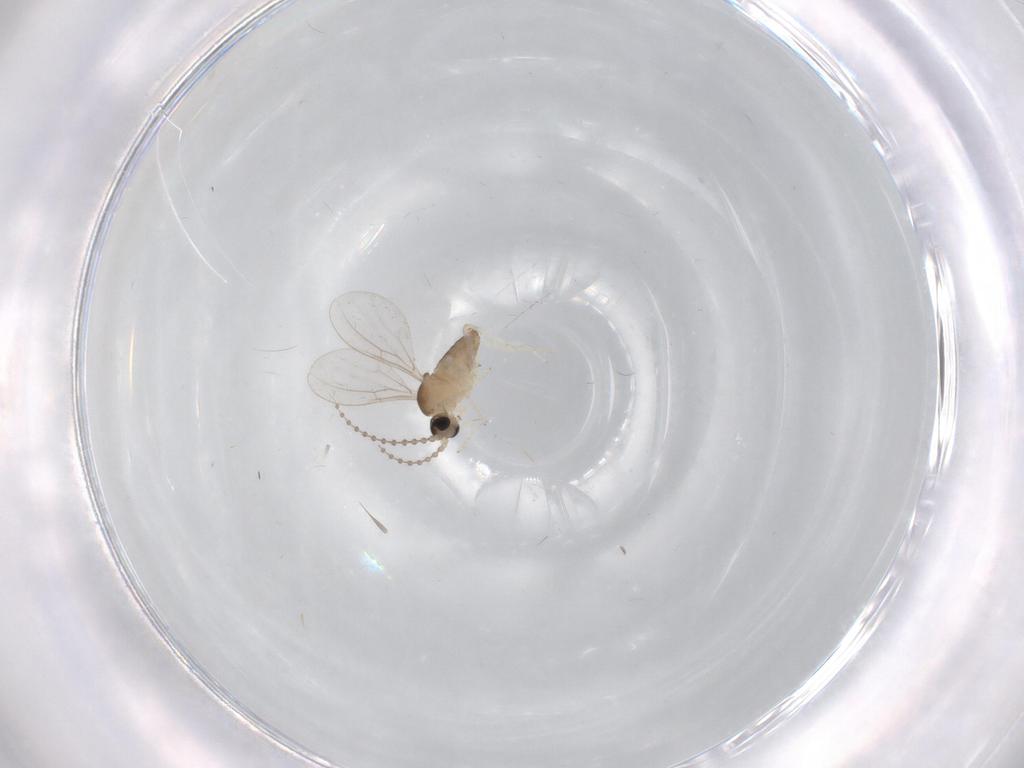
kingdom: Animalia
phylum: Arthropoda
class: Insecta
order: Diptera
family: Cecidomyiidae
